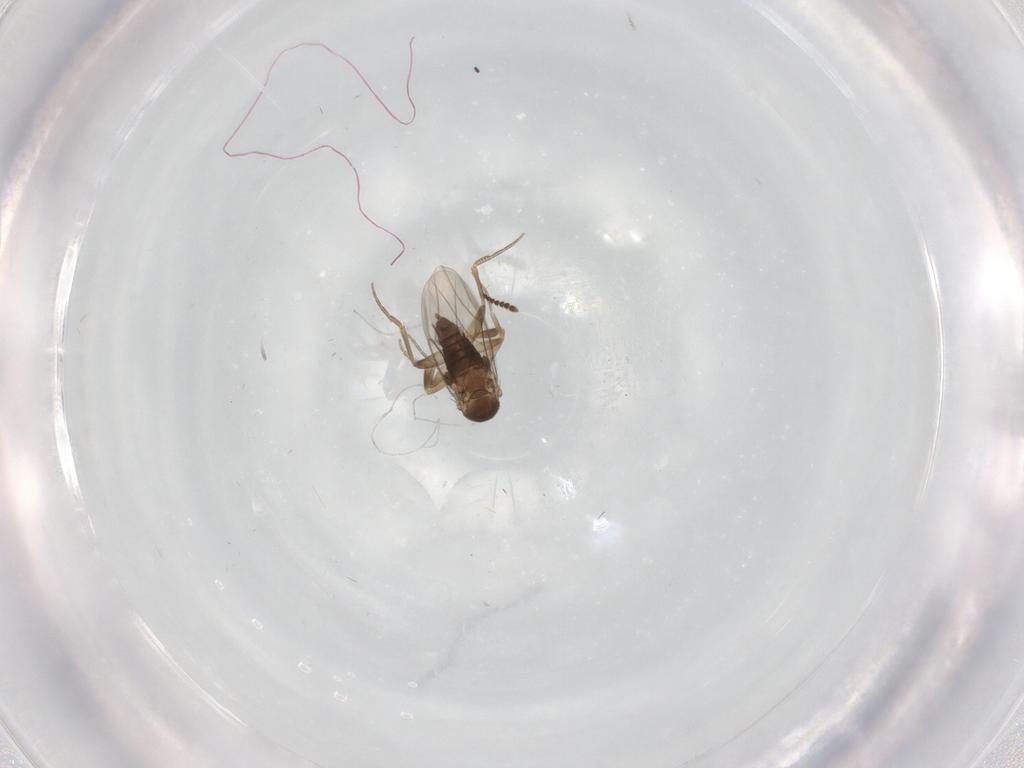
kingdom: Animalia
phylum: Arthropoda
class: Insecta
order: Diptera
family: Phoridae
